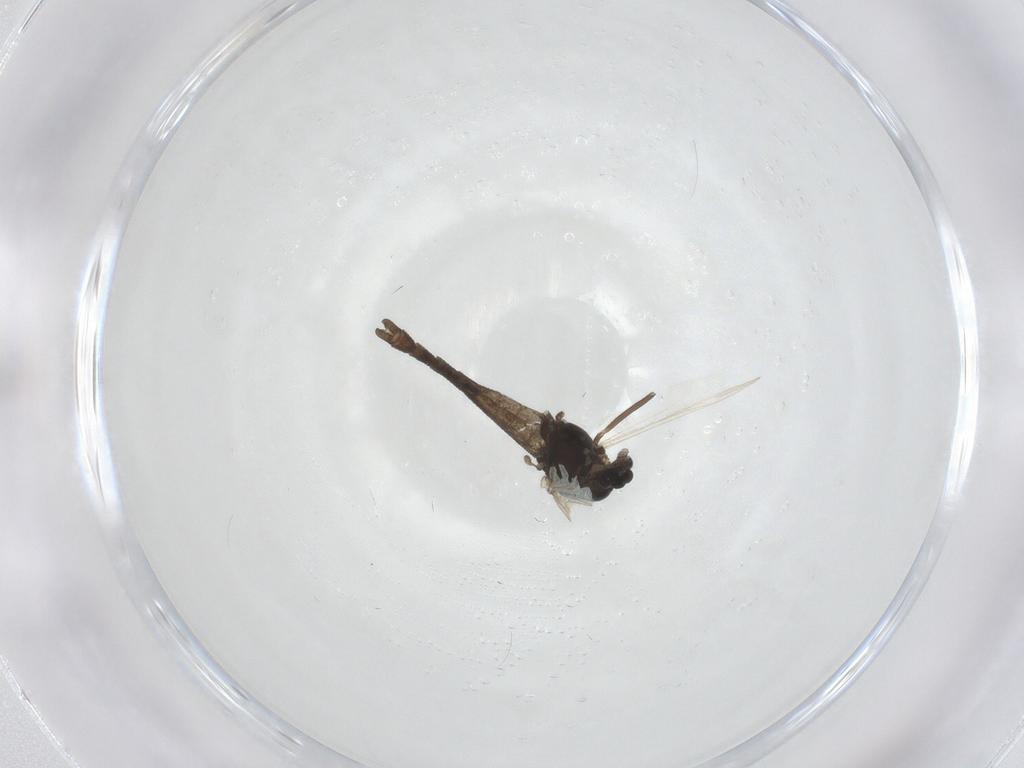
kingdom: Animalia
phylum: Arthropoda
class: Insecta
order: Diptera
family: Chironomidae
